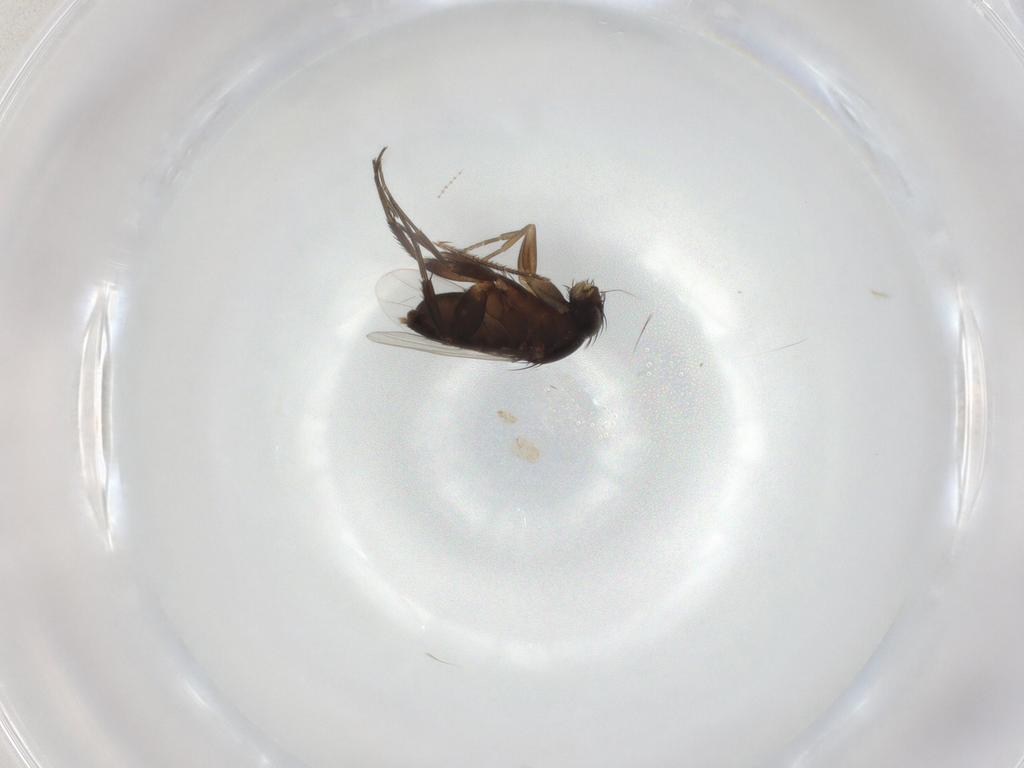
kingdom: Animalia
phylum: Arthropoda
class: Insecta
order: Diptera
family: Phoridae
